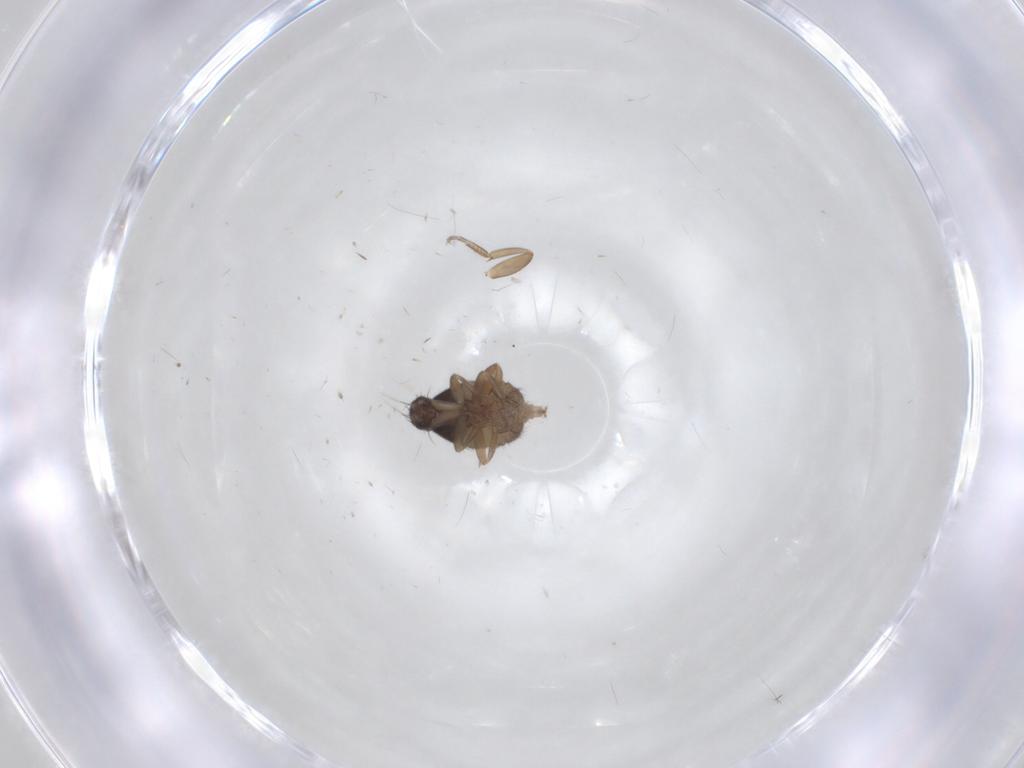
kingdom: Animalia
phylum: Arthropoda
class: Insecta
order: Diptera
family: Phoridae
